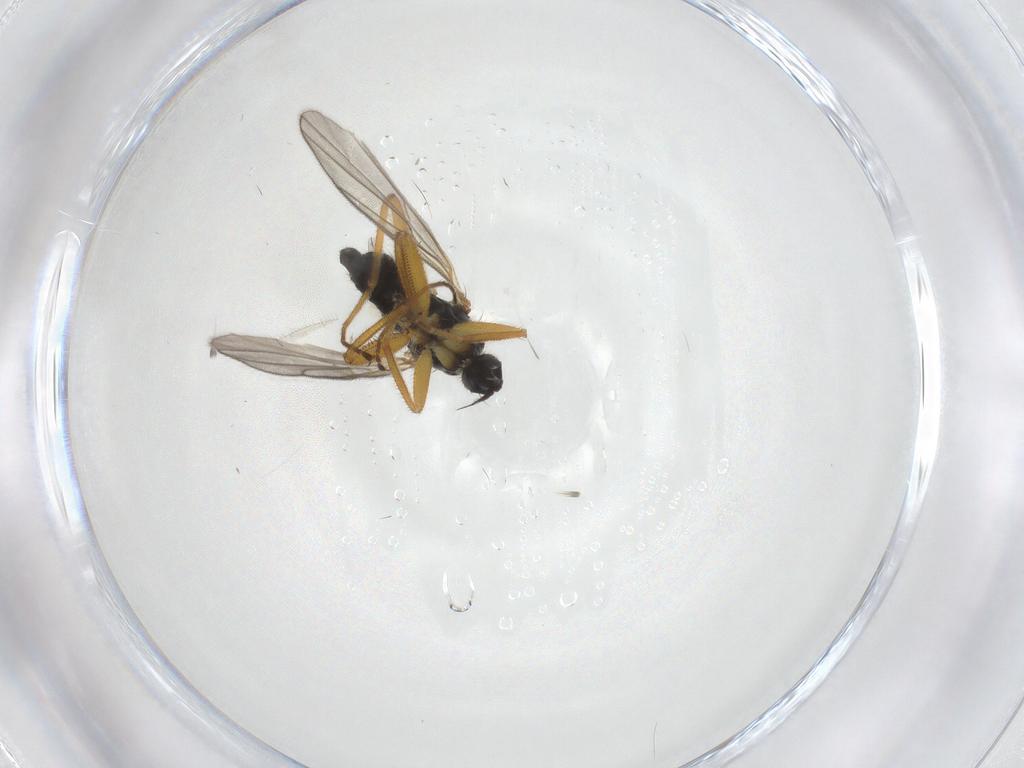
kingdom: Animalia
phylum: Arthropoda
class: Insecta
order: Diptera
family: Hybotidae
